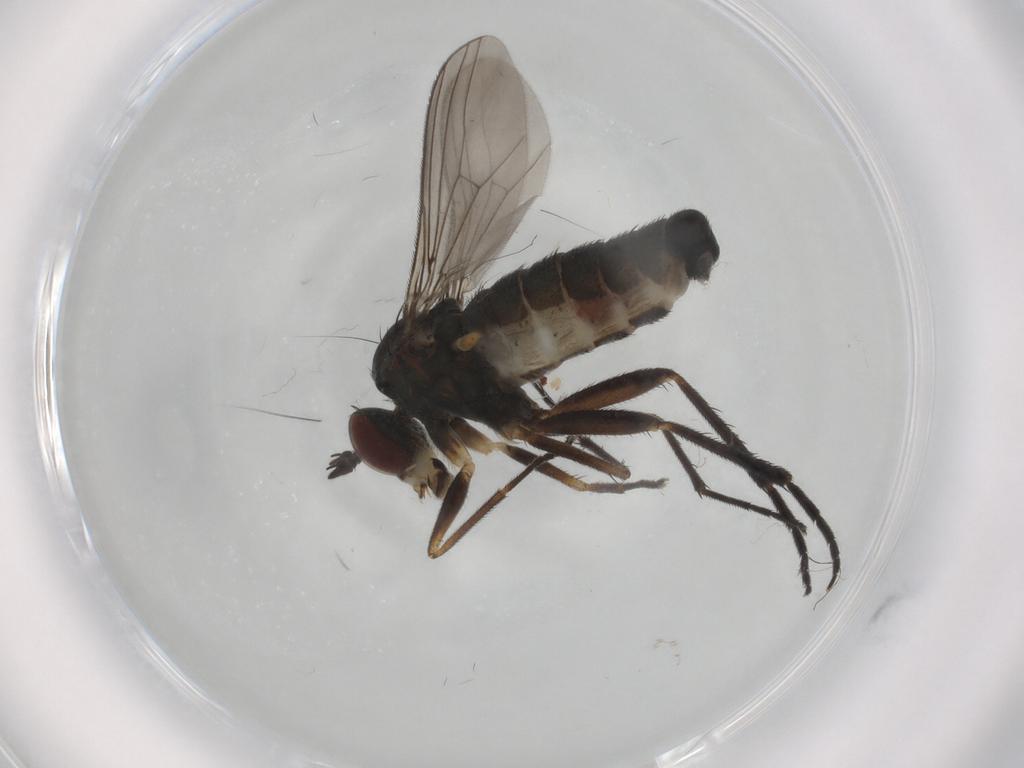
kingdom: Animalia
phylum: Arthropoda
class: Insecta
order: Diptera
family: Dolichopodidae
